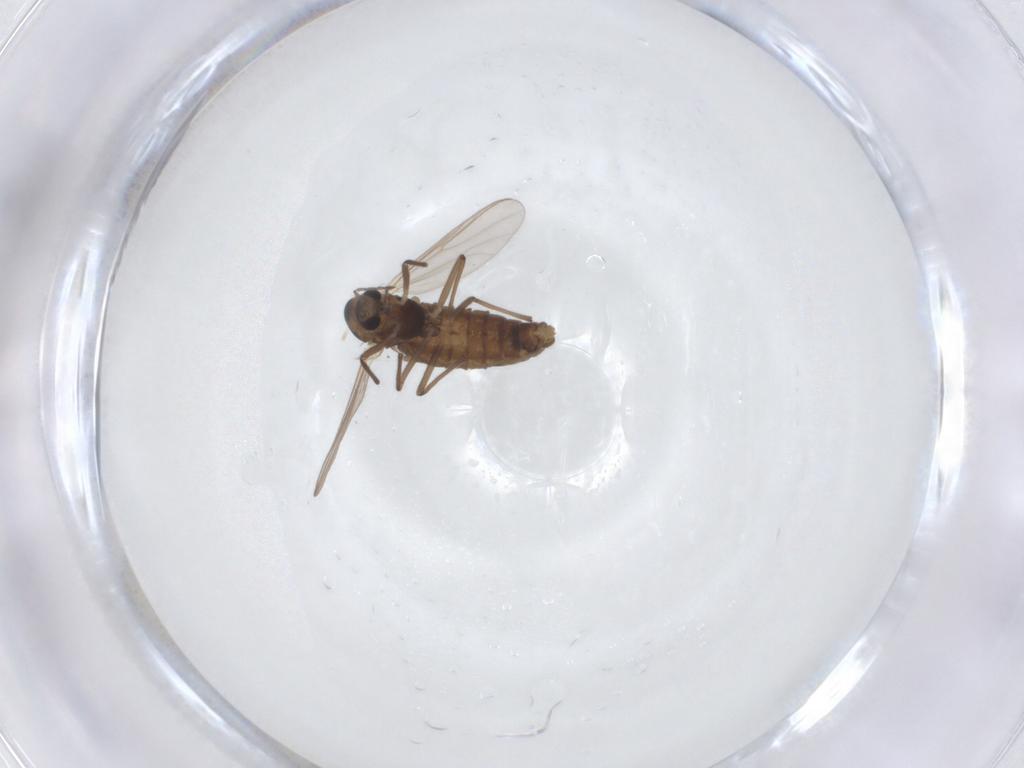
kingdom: Animalia
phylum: Arthropoda
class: Insecta
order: Diptera
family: Chironomidae
